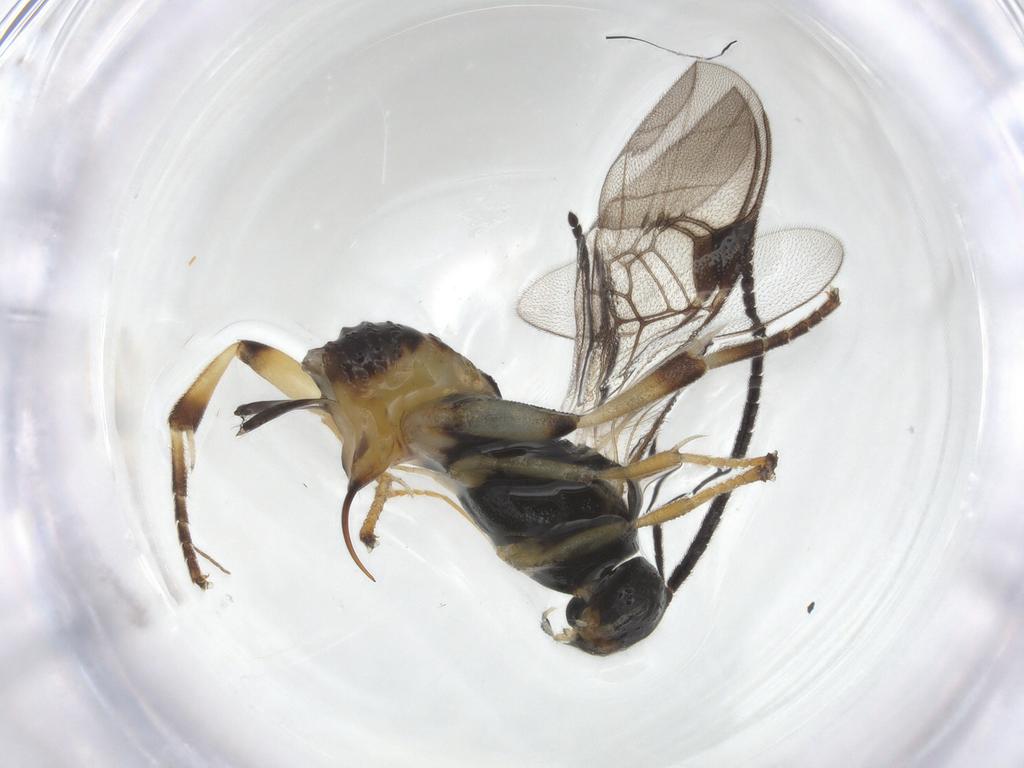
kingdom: Animalia
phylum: Arthropoda
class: Insecta
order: Hymenoptera
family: Braconidae
